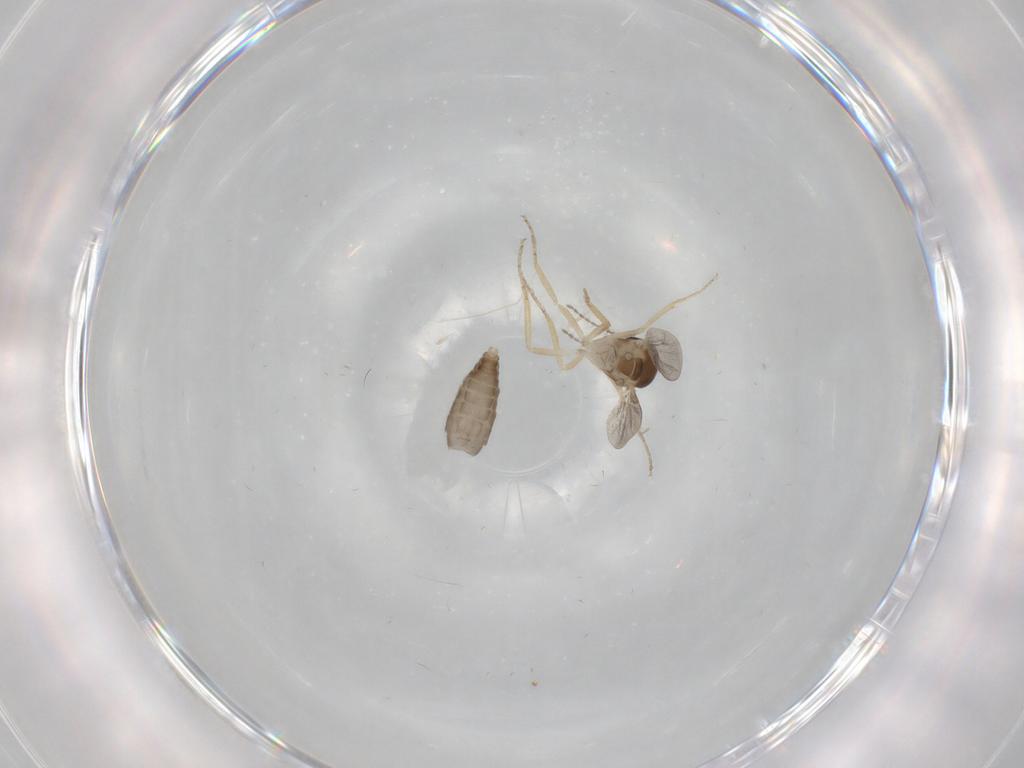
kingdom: Animalia
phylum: Arthropoda
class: Insecta
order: Diptera
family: Ceratopogonidae
